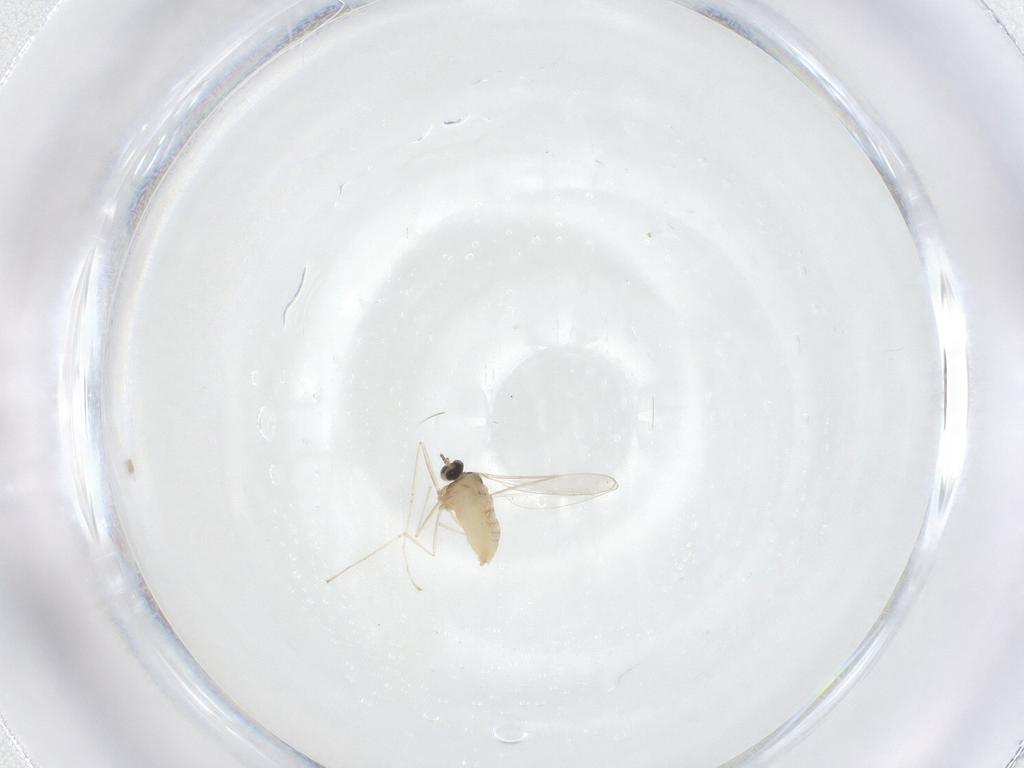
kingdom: Animalia
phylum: Arthropoda
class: Insecta
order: Diptera
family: Cecidomyiidae
